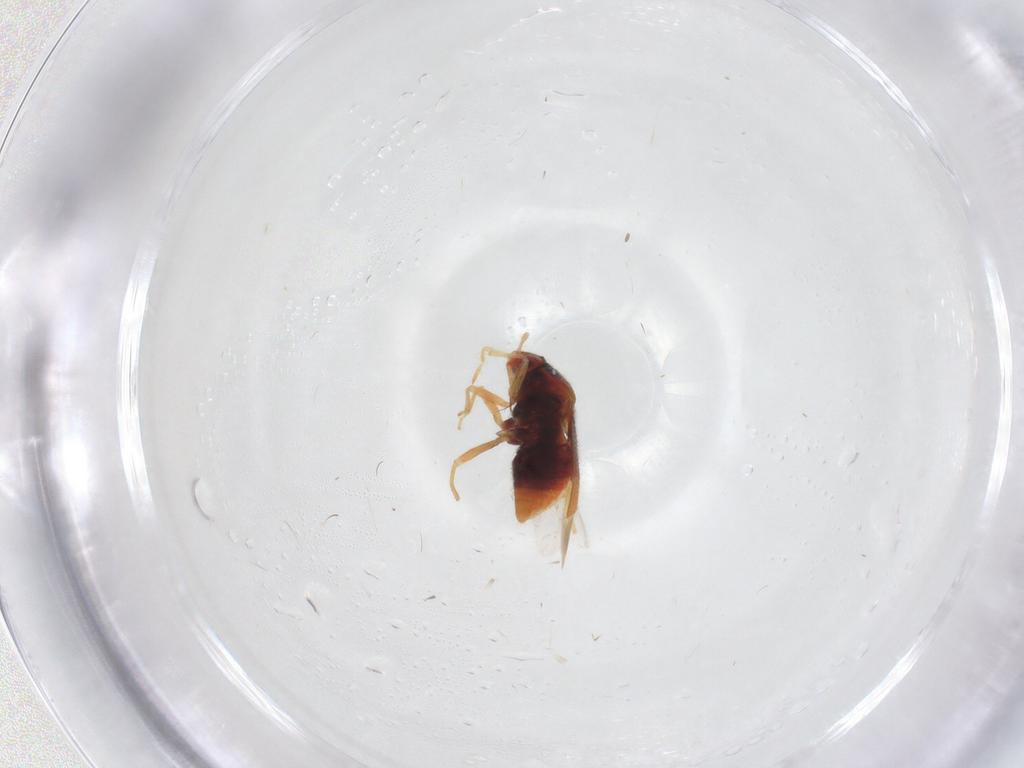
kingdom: Animalia
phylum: Arthropoda
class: Insecta
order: Hemiptera
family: Anthocoridae
